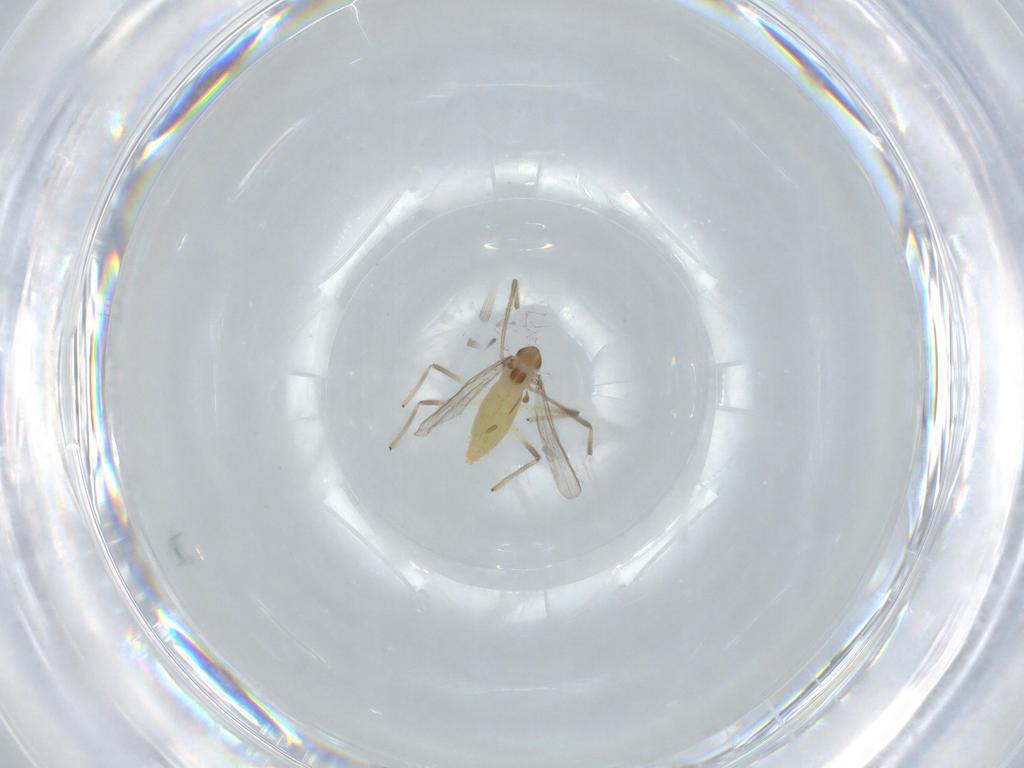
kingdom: Animalia
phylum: Arthropoda
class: Insecta
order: Diptera
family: Chironomidae
